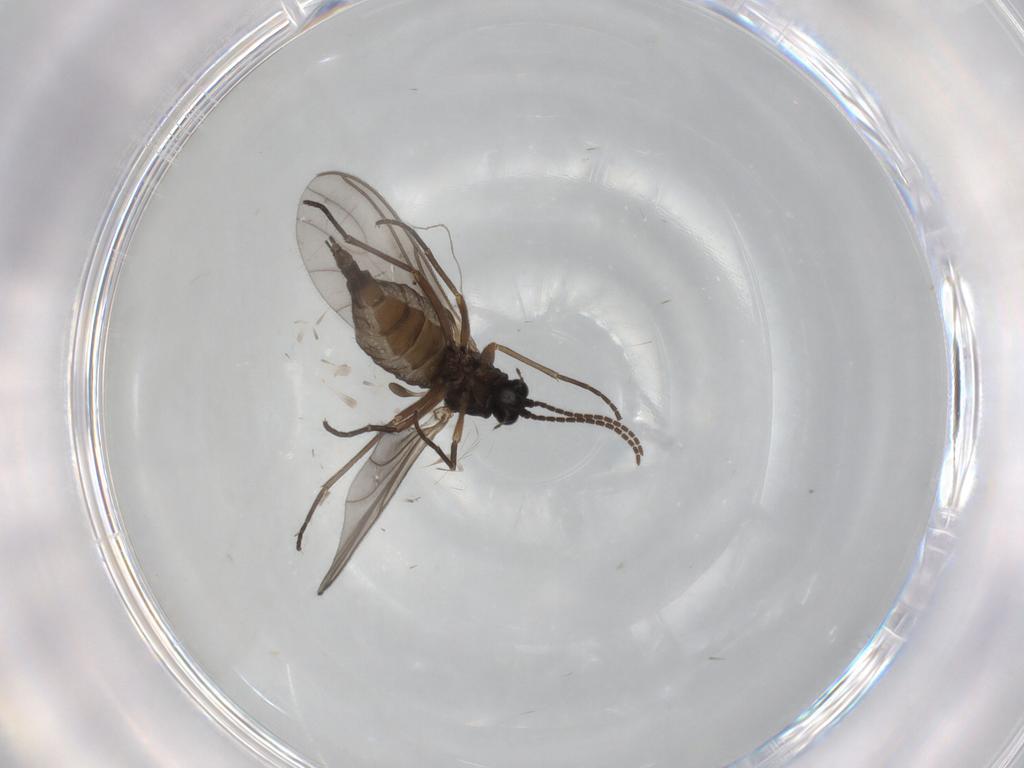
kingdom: Animalia
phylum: Arthropoda
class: Insecta
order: Diptera
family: Sciaridae
